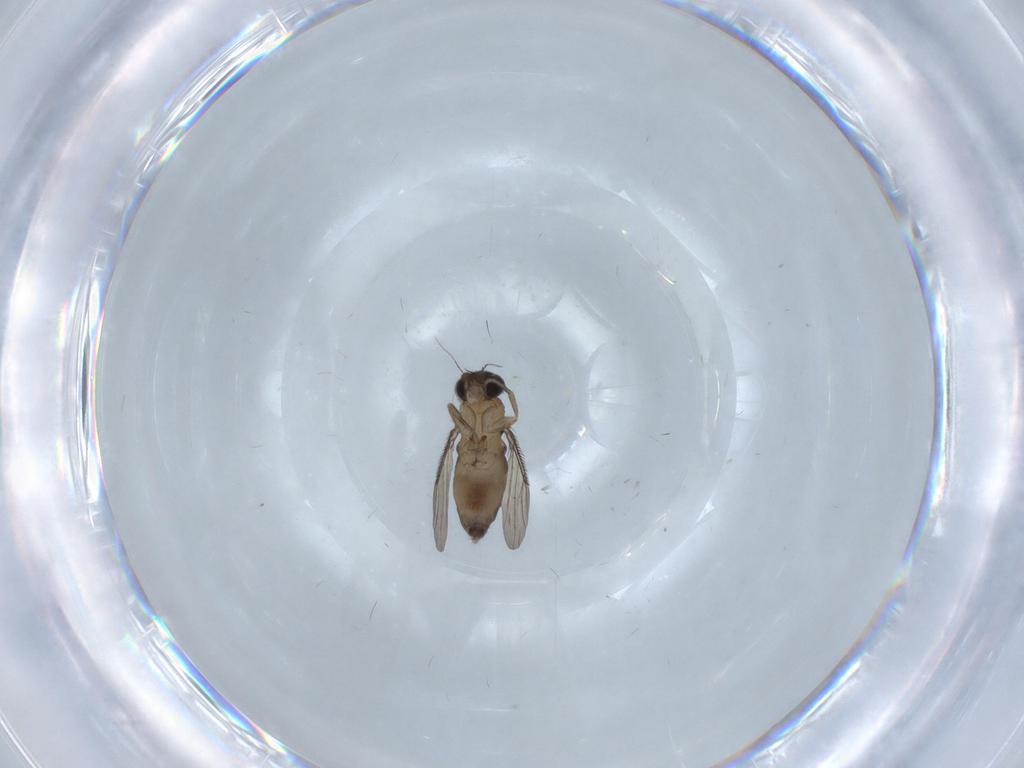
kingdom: Animalia
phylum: Arthropoda
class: Insecta
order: Diptera
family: Phoridae
